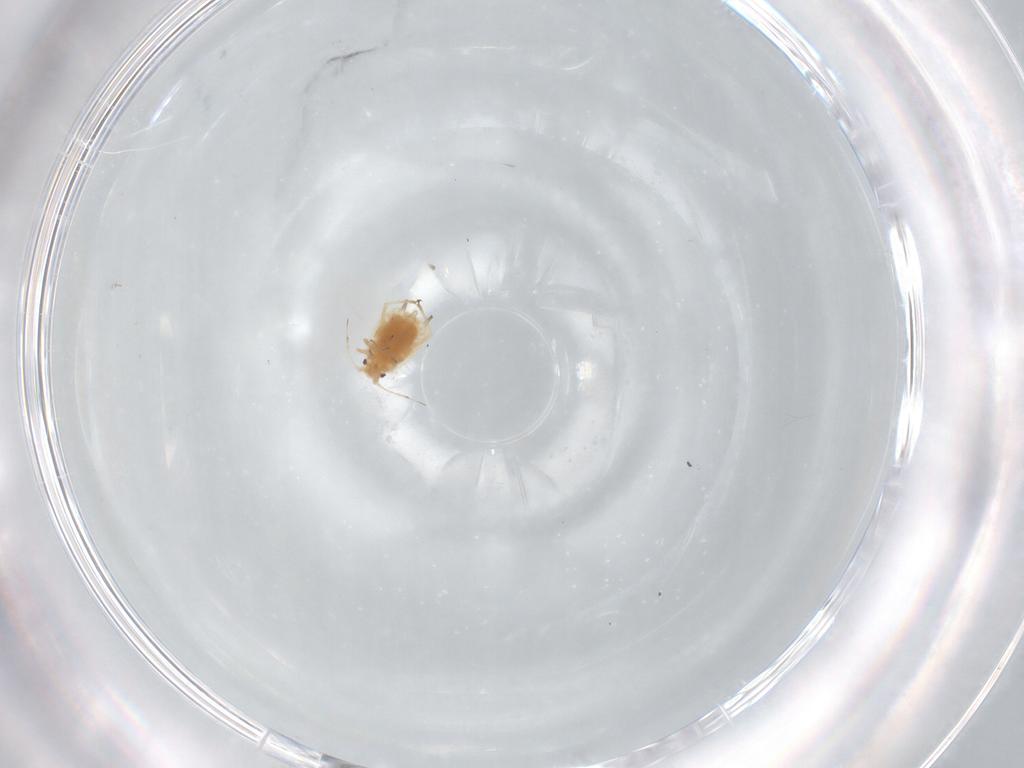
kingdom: Animalia
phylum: Arthropoda
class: Insecta
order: Hemiptera
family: Aphididae
